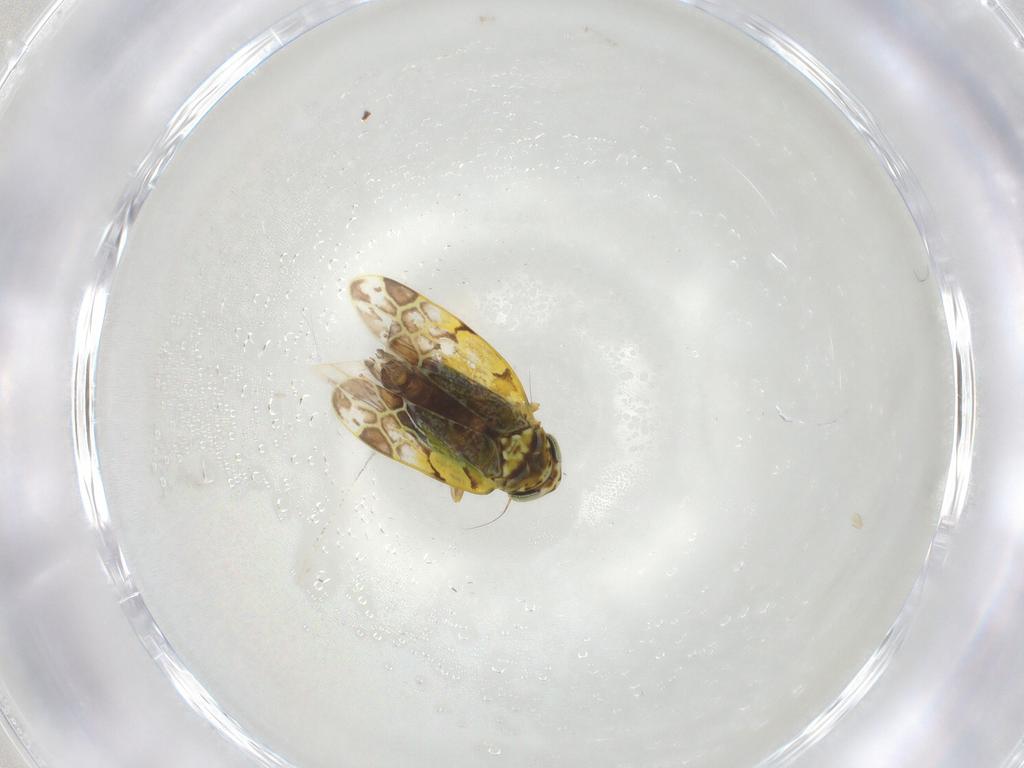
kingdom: Animalia
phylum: Arthropoda
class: Insecta
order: Hemiptera
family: Cicadellidae
